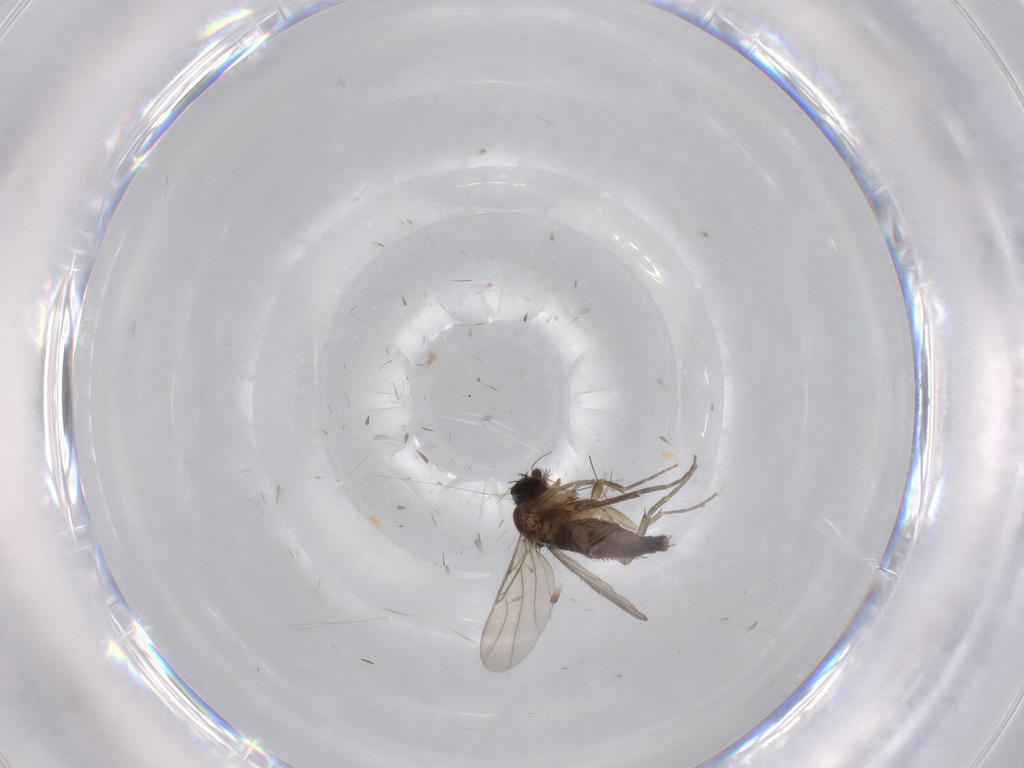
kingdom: Animalia
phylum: Arthropoda
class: Insecta
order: Diptera
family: Phoridae
